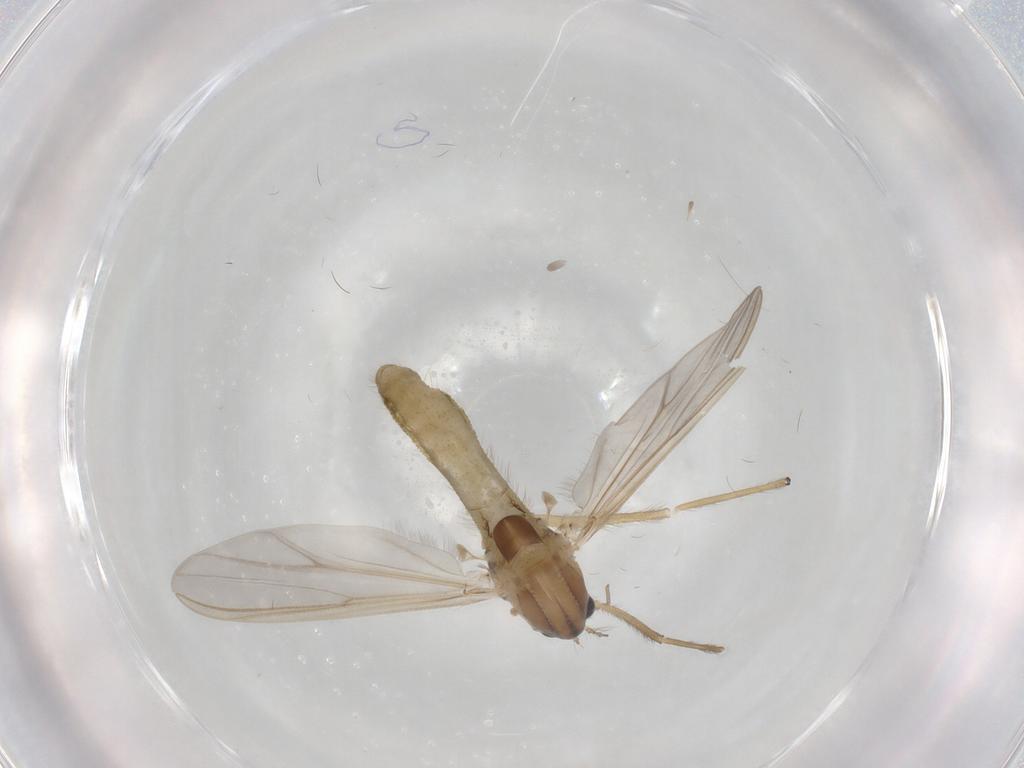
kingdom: Animalia
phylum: Arthropoda
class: Insecta
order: Diptera
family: Chironomidae
